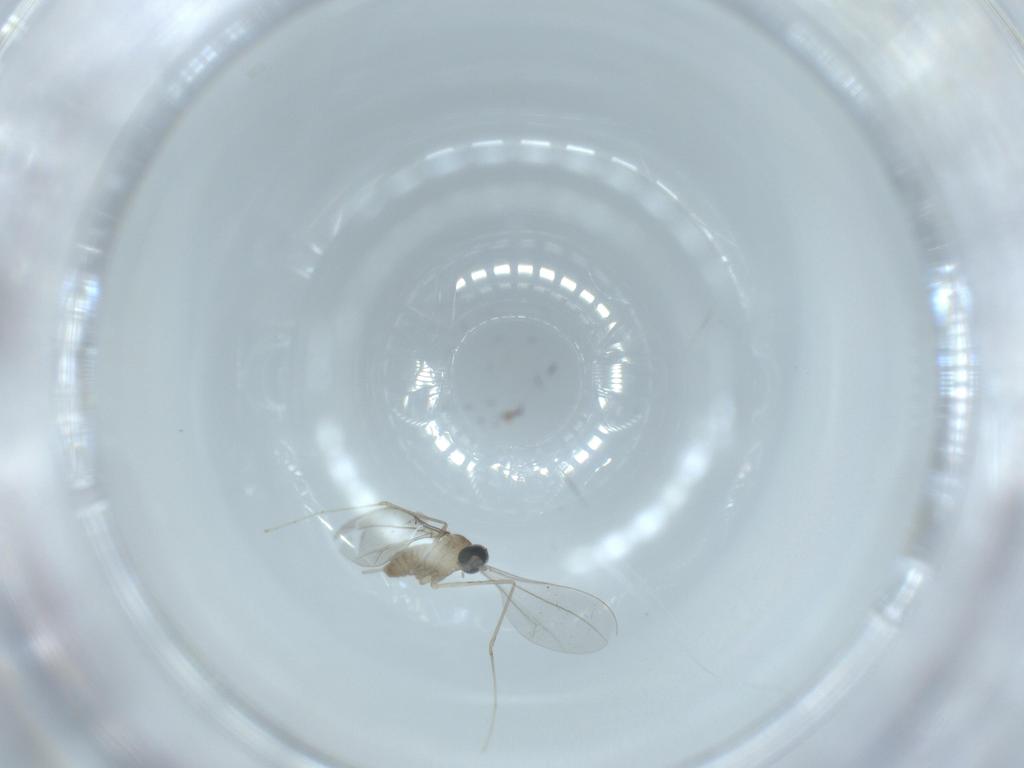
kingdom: Animalia
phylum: Arthropoda
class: Insecta
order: Diptera
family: Cecidomyiidae
